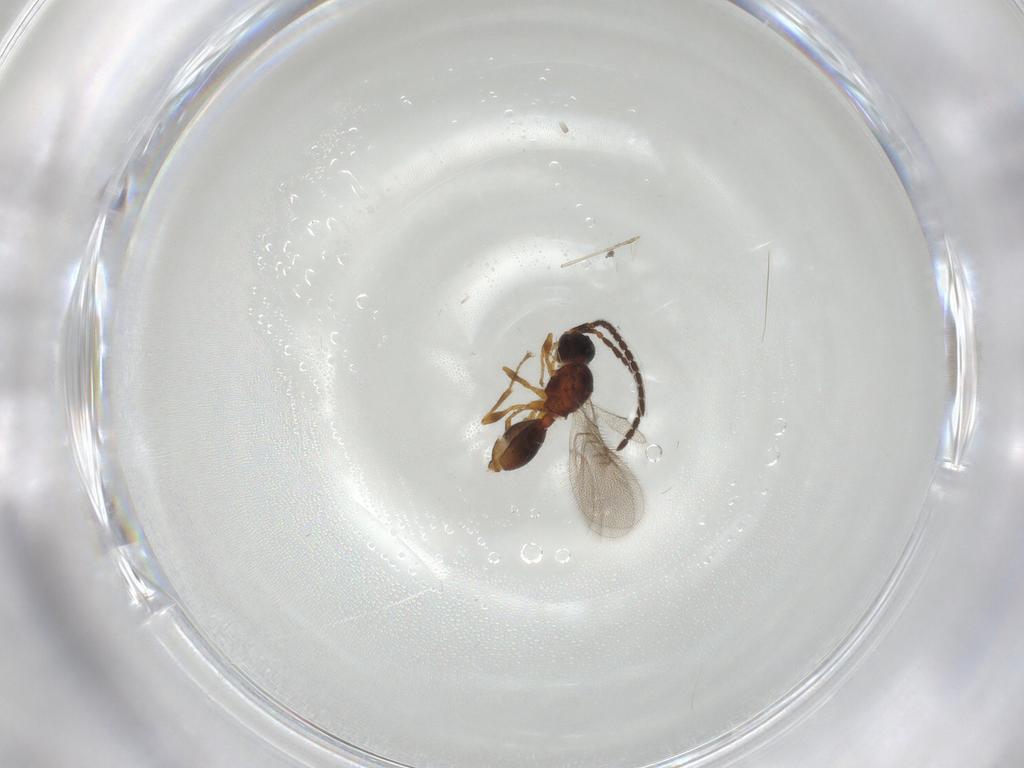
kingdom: Animalia
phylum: Arthropoda
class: Insecta
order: Hymenoptera
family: Diapriidae
